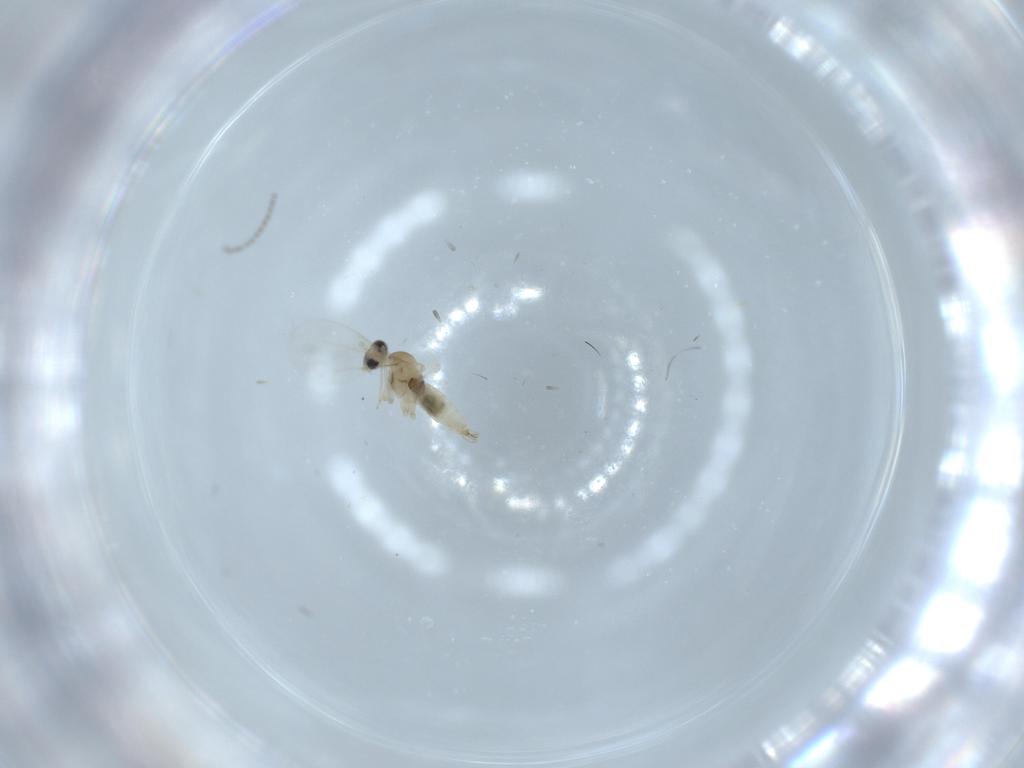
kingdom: Animalia
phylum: Arthropoda
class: Insecta
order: Diptera
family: Cecidomyiidae
